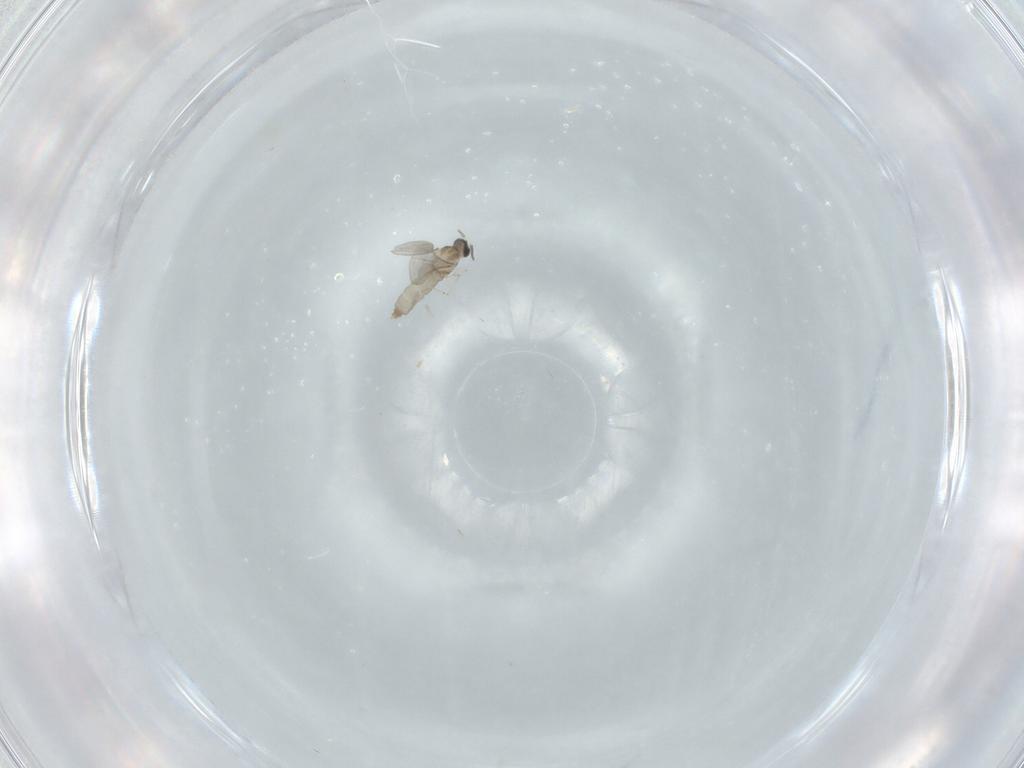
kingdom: Animalia
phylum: Arthropoda
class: Insecta
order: Diptera
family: Dolichopodidae
